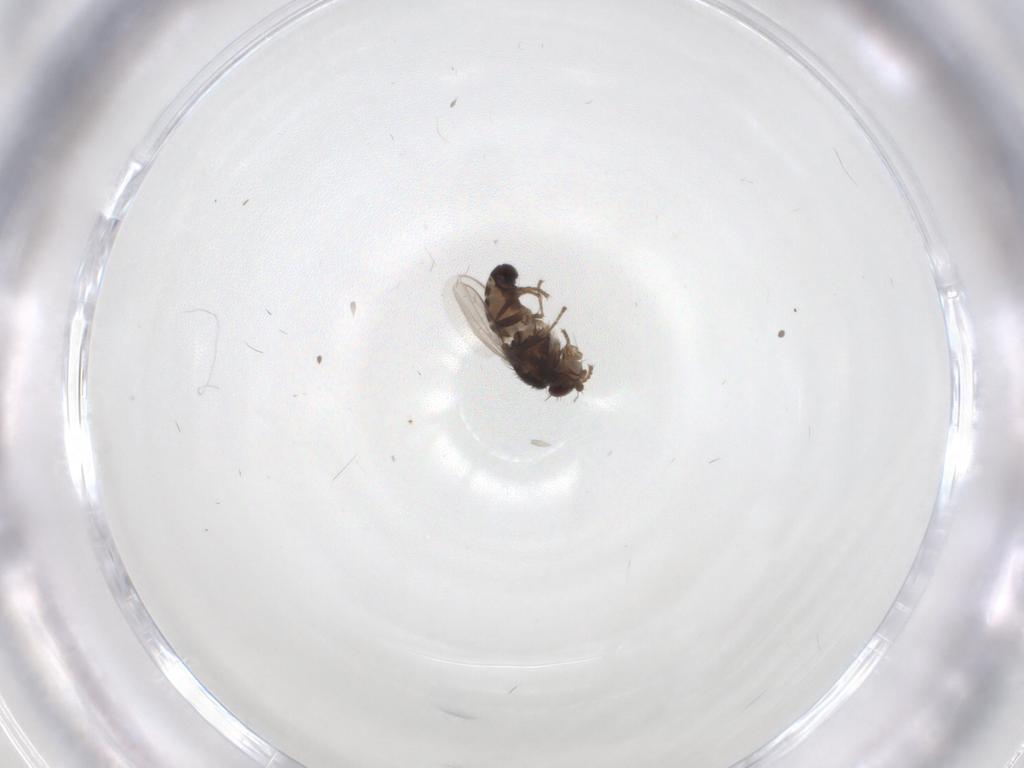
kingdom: Animalia
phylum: Arthropoda
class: Insecta
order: Diptera
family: Sphaeroceridae
